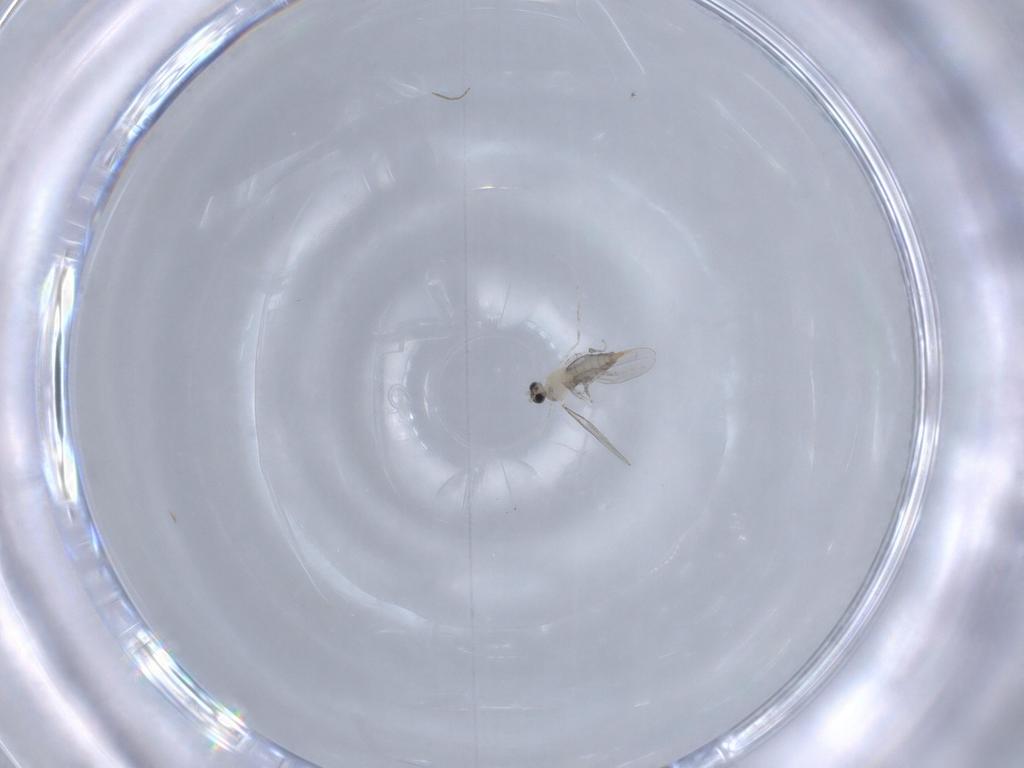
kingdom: Animalia
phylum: Arthropoda
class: Insecta
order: Diptera
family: Chironomidae
